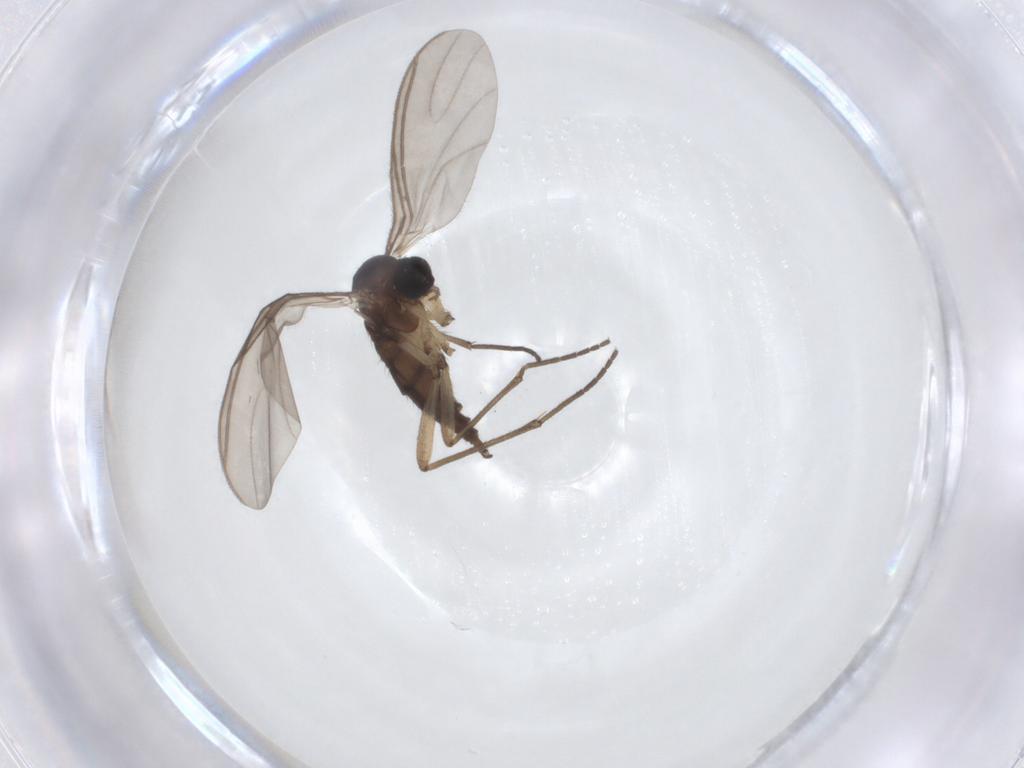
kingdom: Animalia
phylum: Arthropoda
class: Insecta
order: Diptera
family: Sciaridae
